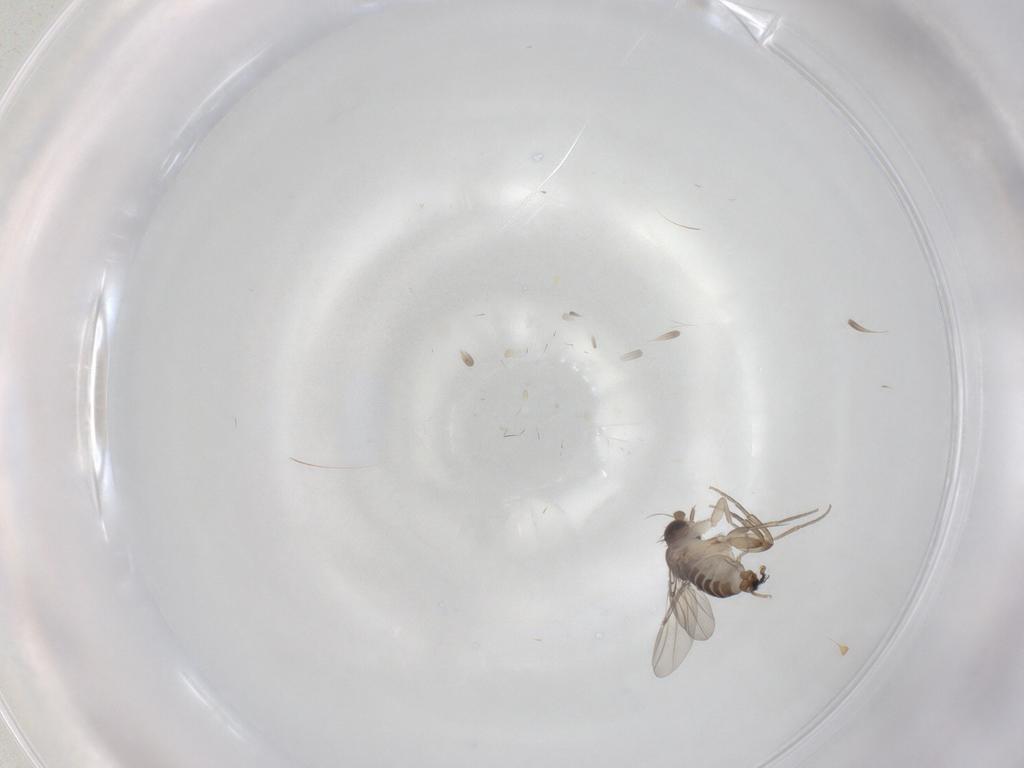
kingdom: Animalia
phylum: Arthropoda
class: Insecta
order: Diptera
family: Phoridae
